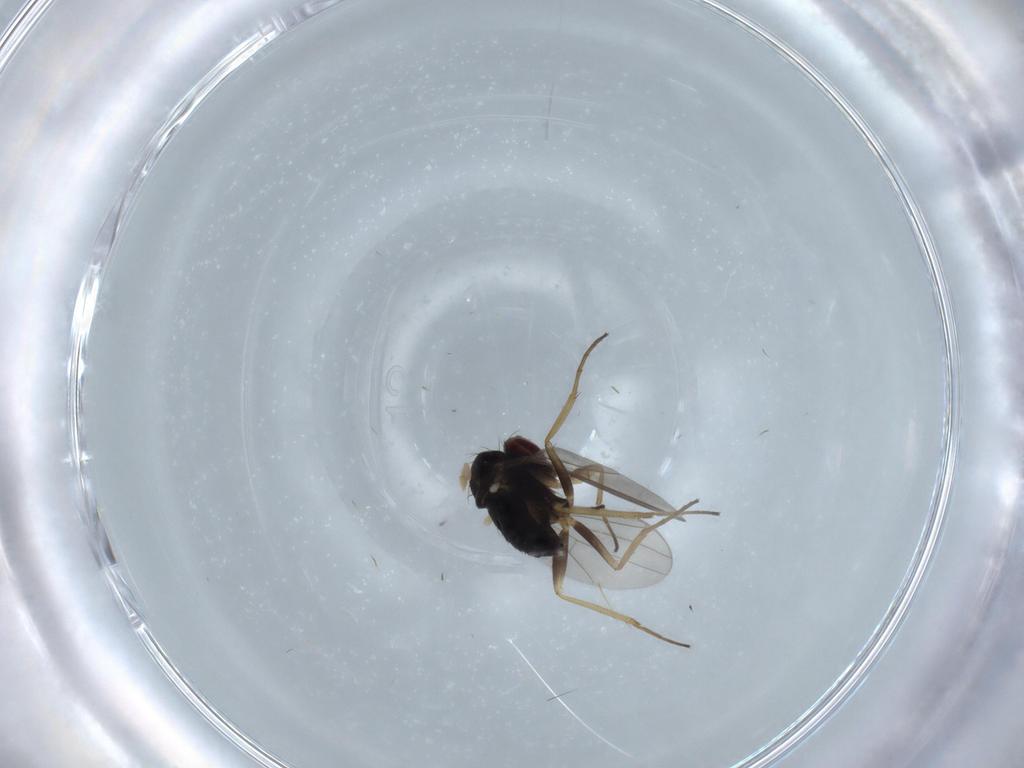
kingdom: Animalia
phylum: Arthropoda
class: Insecta
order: Diptera
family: Dolichopodidae
